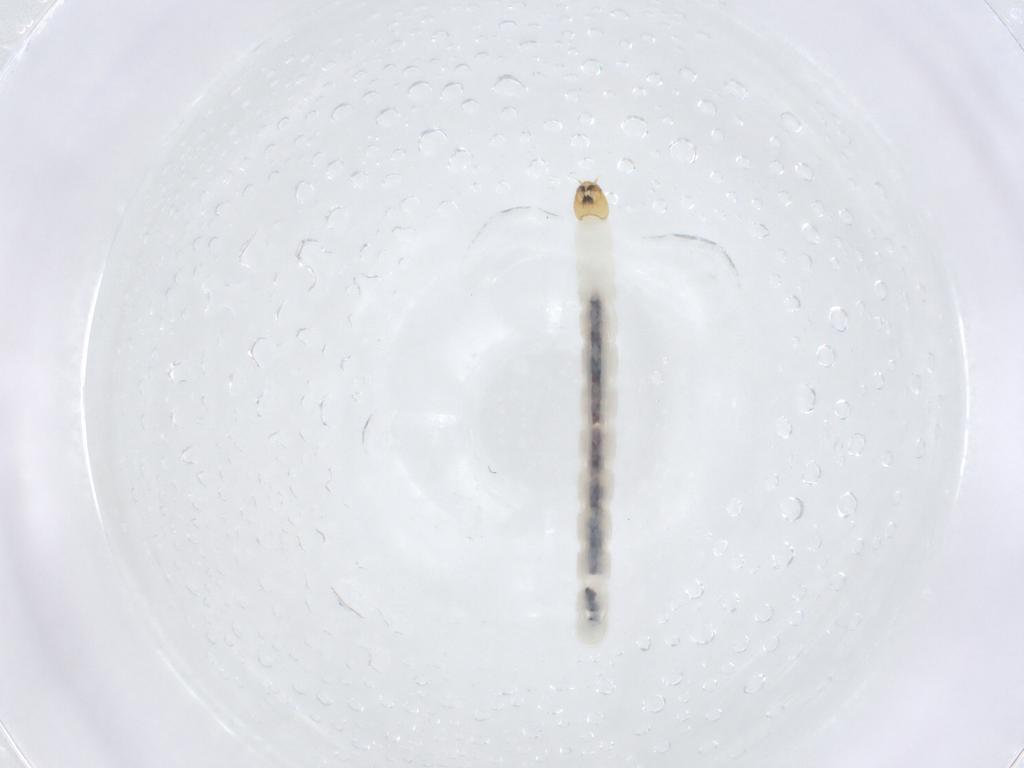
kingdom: Animalia
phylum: Arthropoda
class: Insecta
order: Diptera
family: Chironomidae
